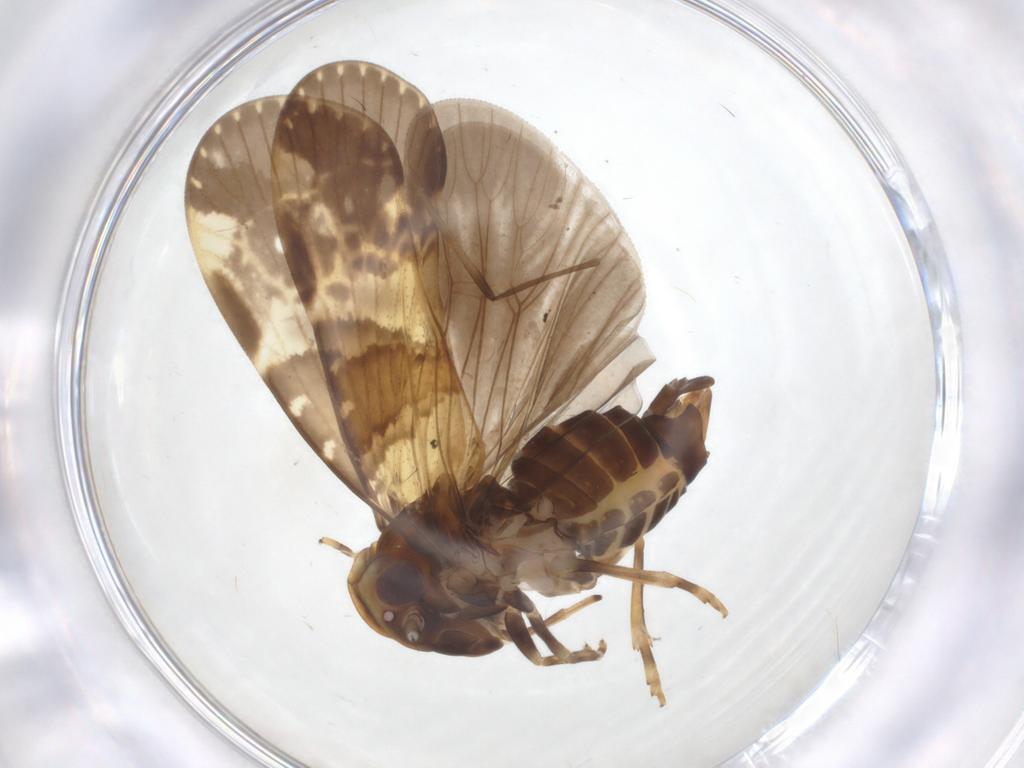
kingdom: Animalia
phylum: Arthropoda
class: Insecta
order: Hemiptera
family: Cixiidae
